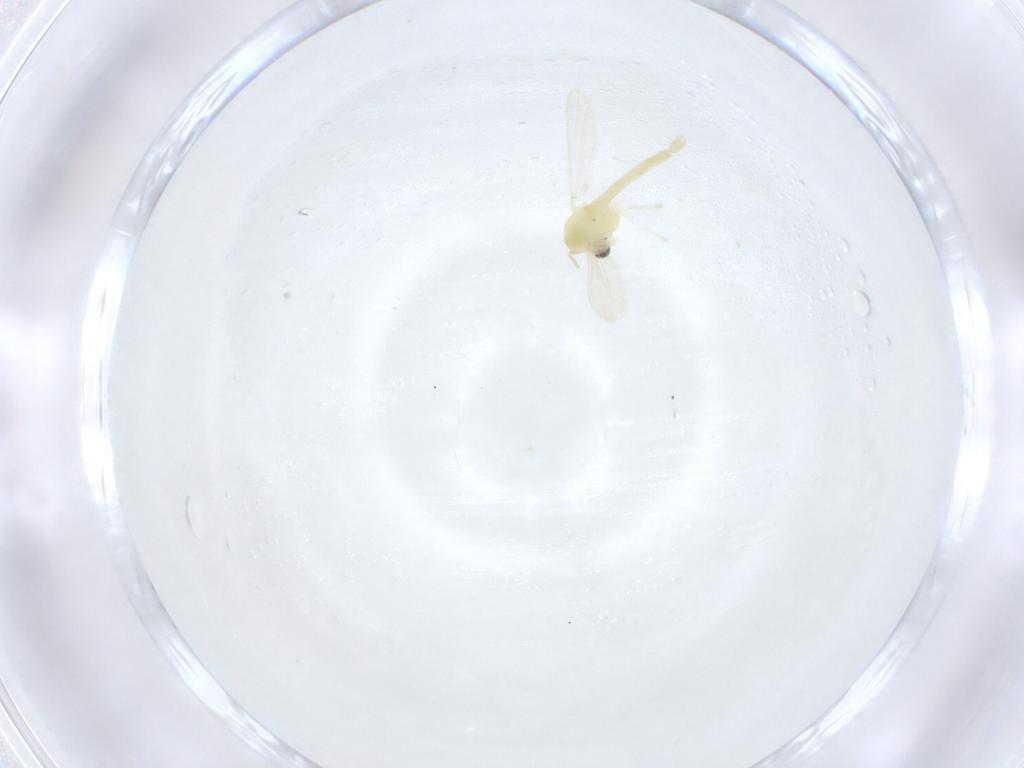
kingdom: Animalia
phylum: Arthropoda
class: Insecta
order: Diptera
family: Chironomidae
